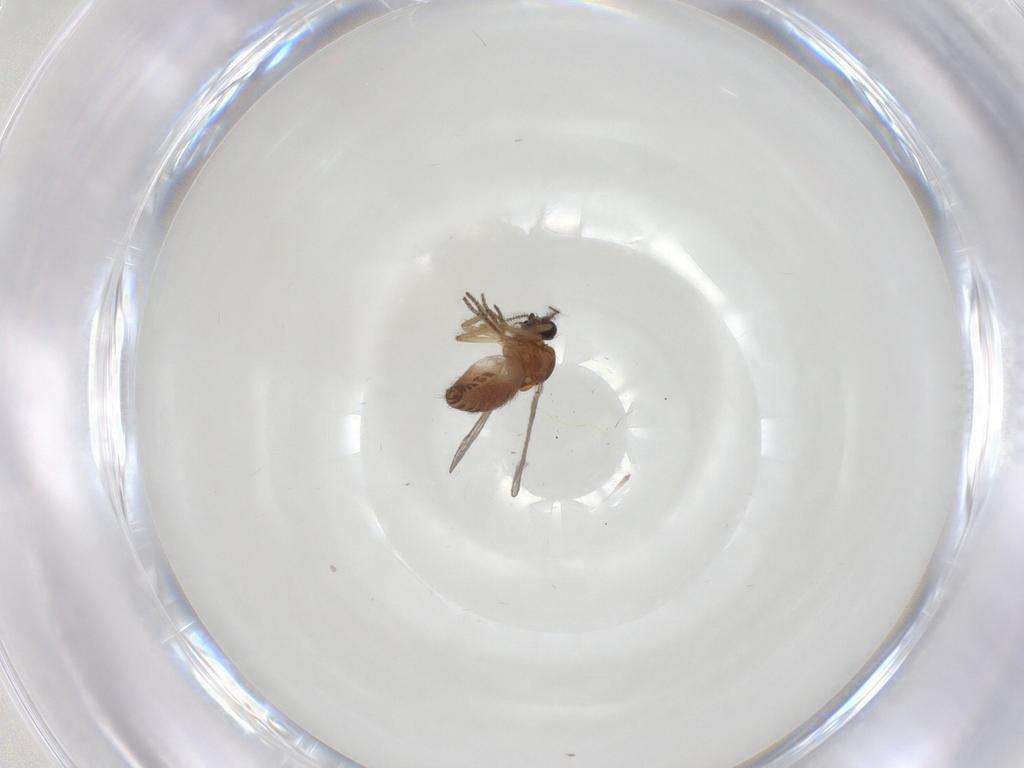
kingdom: Animalia
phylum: Arthropoda
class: Insecta
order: Diptera
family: Ceratopogonidae
